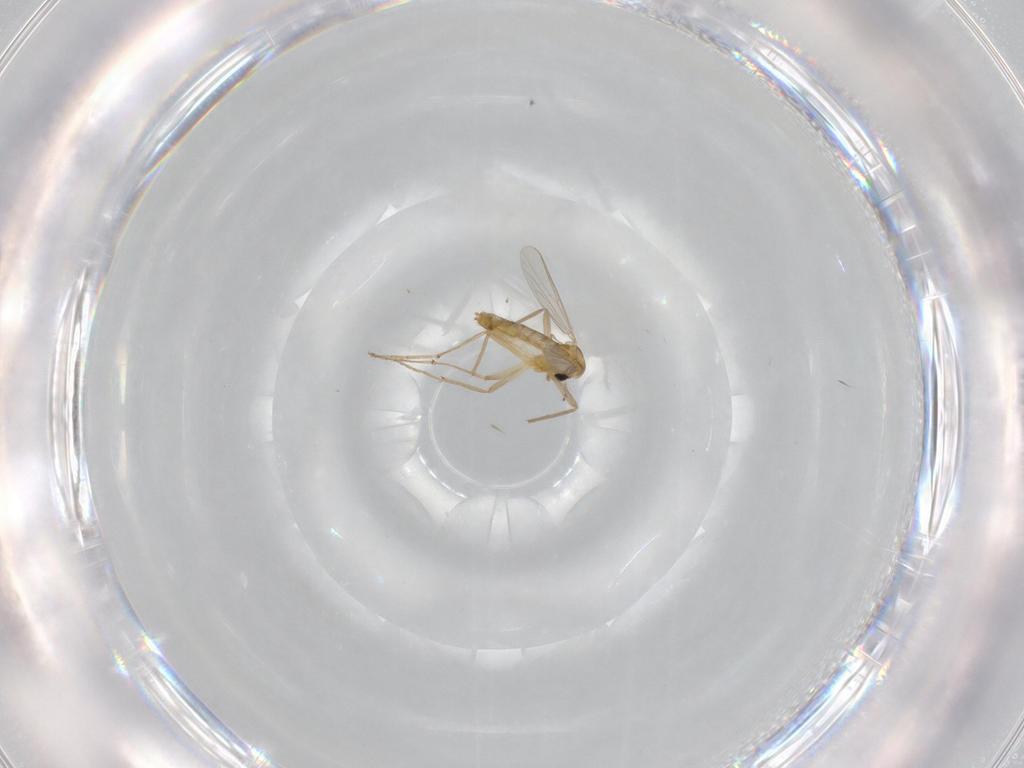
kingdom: Animalia
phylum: Arthropoda
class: Insecta
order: Diptera
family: Chironomidae
